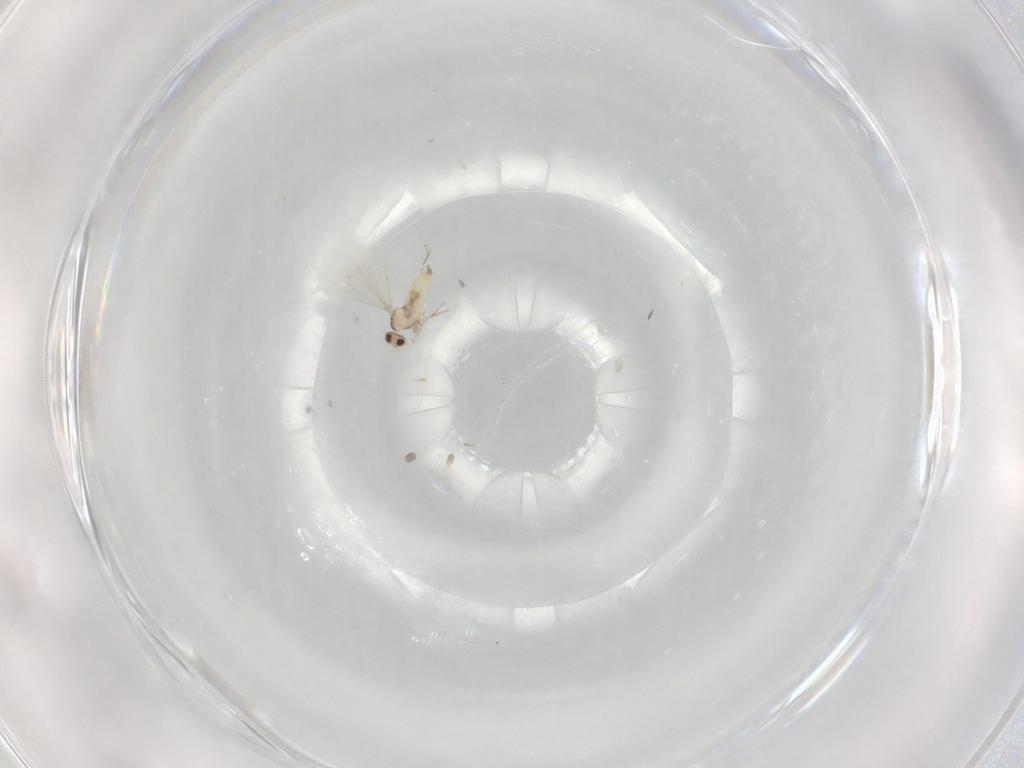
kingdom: Animalia
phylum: Arthropoda
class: Insecta
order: Diptera
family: Cecidomyiidae
